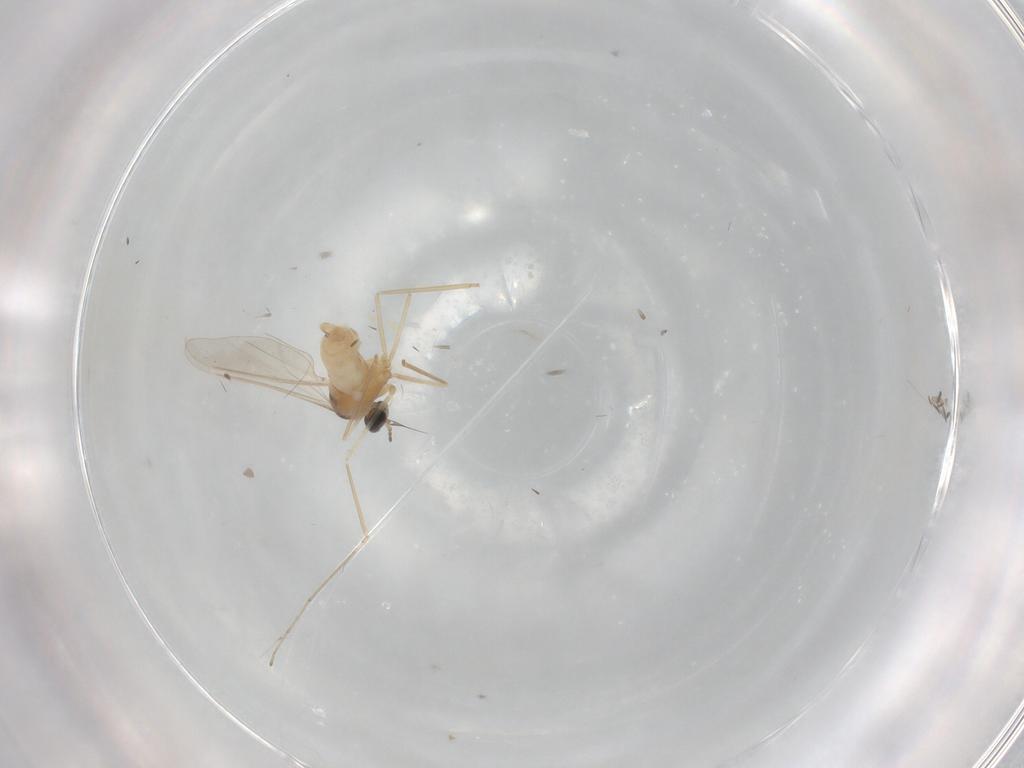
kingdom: Animalia
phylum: Arthropoda
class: Insecta
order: Diptera
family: Cecidomyiidae
